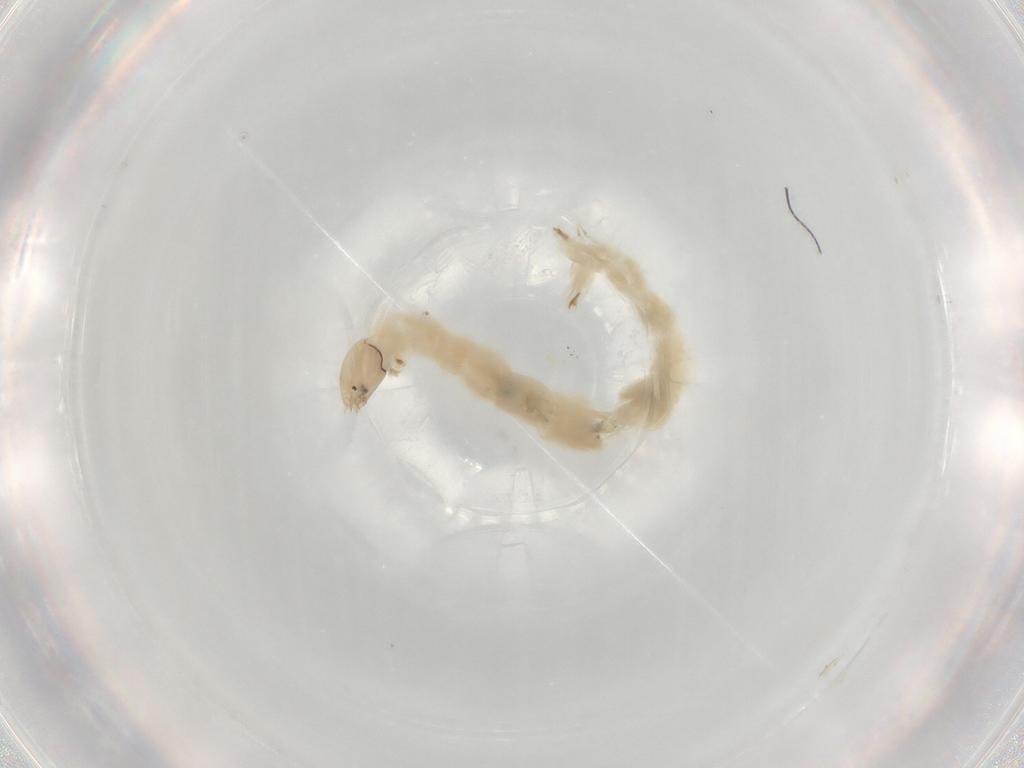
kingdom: Animalia
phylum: Arthropoda
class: Insecta
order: Diptera
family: Chironomidae
